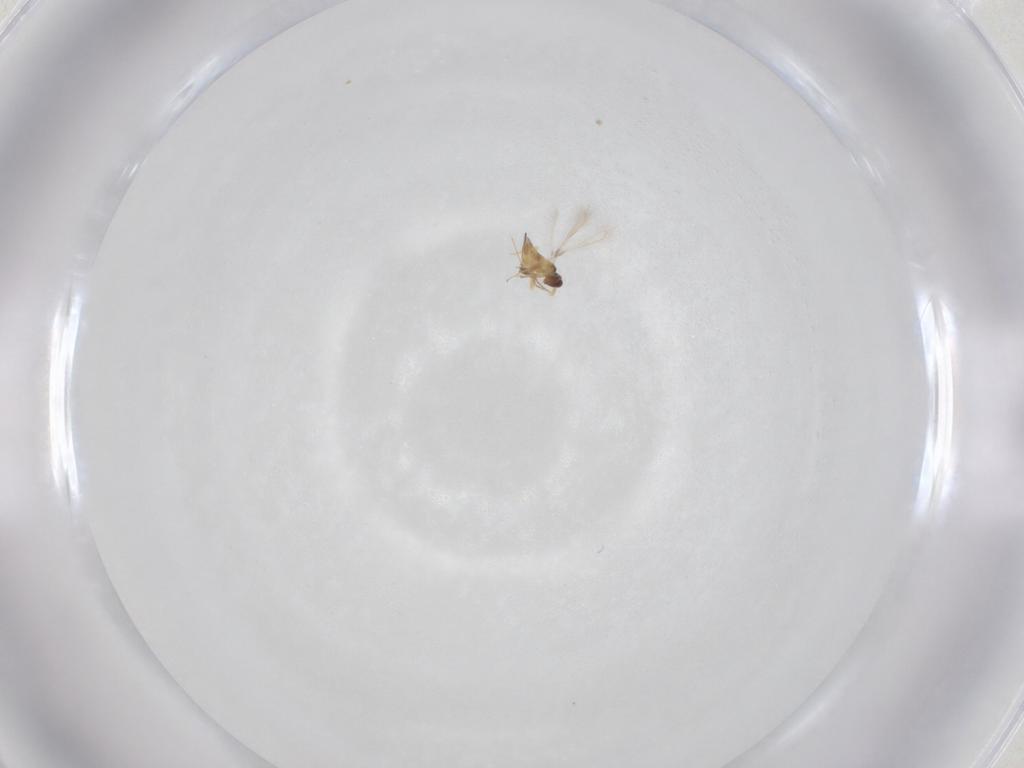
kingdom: Animalia
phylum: Arthropoda
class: Insecta
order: Hymenoptera
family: Mymaridae
